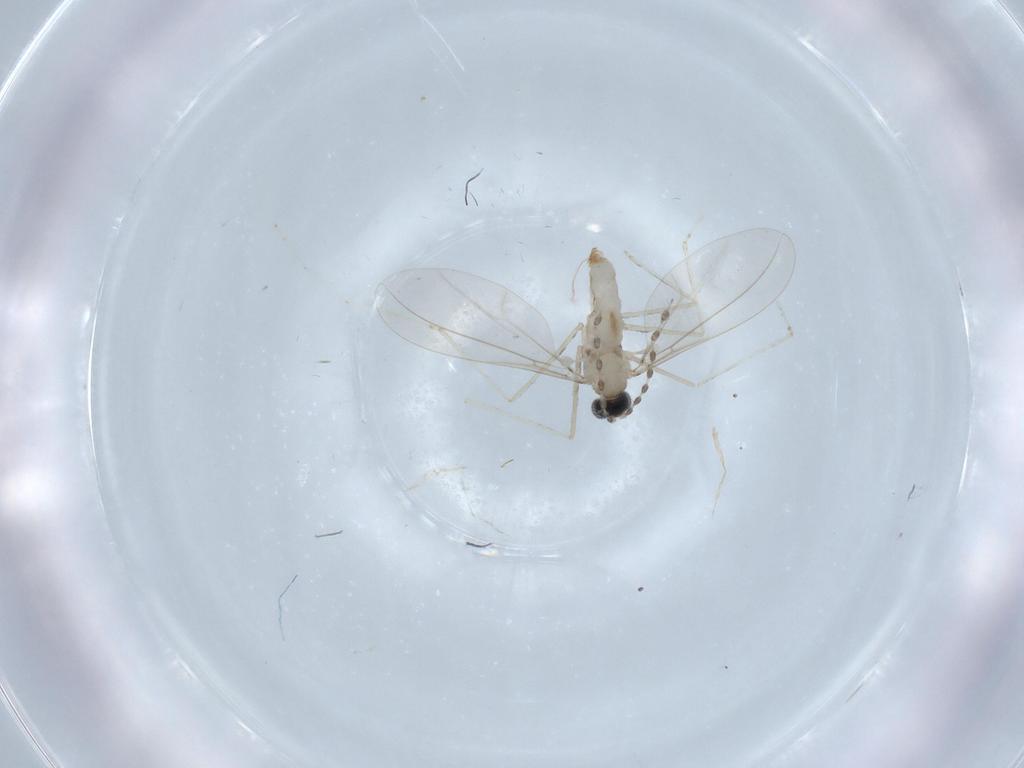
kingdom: Animalia
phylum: Arthropoda
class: Insecta
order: Diptera
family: Cecidomyiidae
